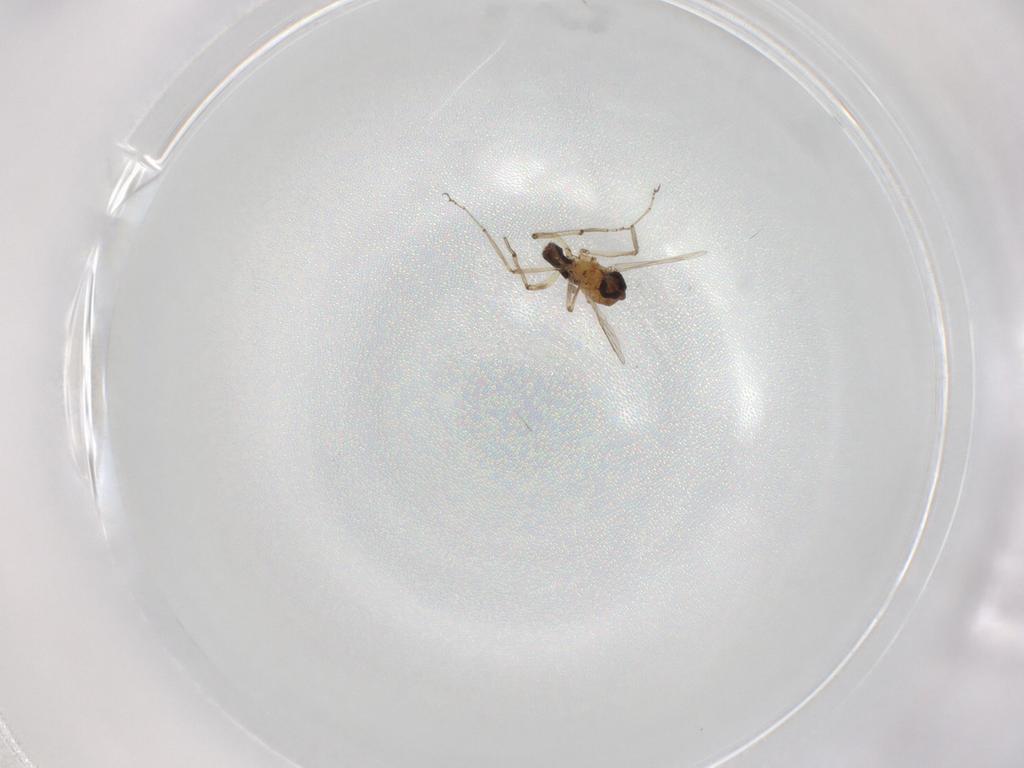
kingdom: Animalia
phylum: Arthropoda
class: Insecta
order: Diptera
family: Ceratopogonidae
